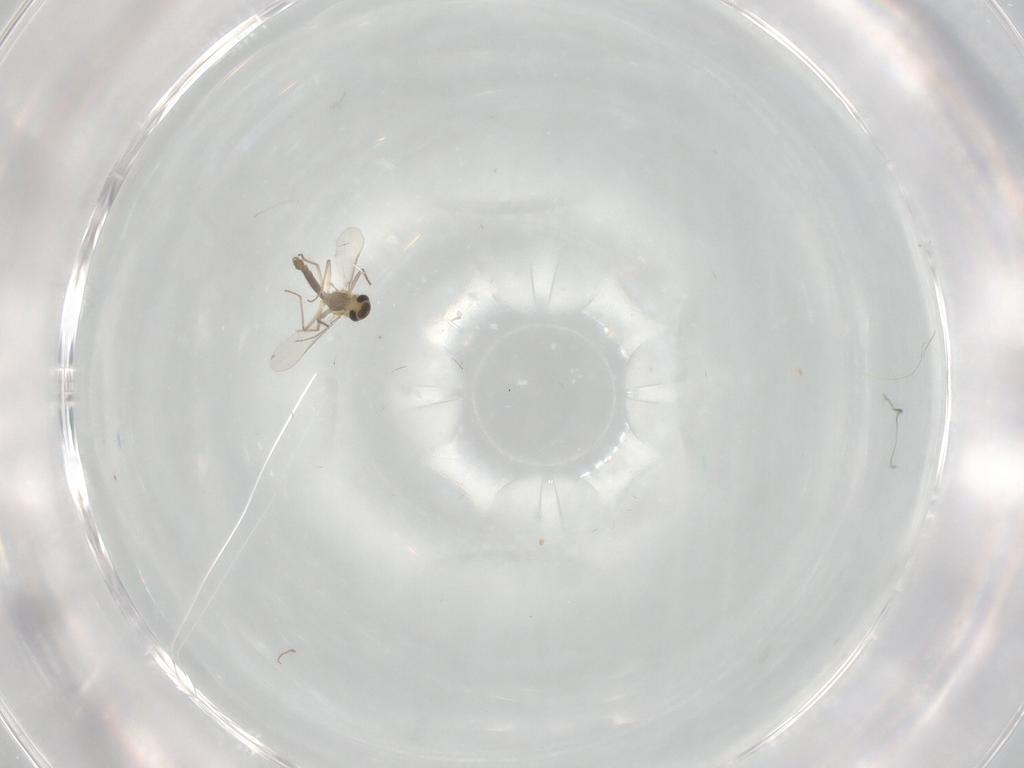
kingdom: Animalia
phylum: Arthropoda
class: Insecta
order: Diptera
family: Chironomidae
